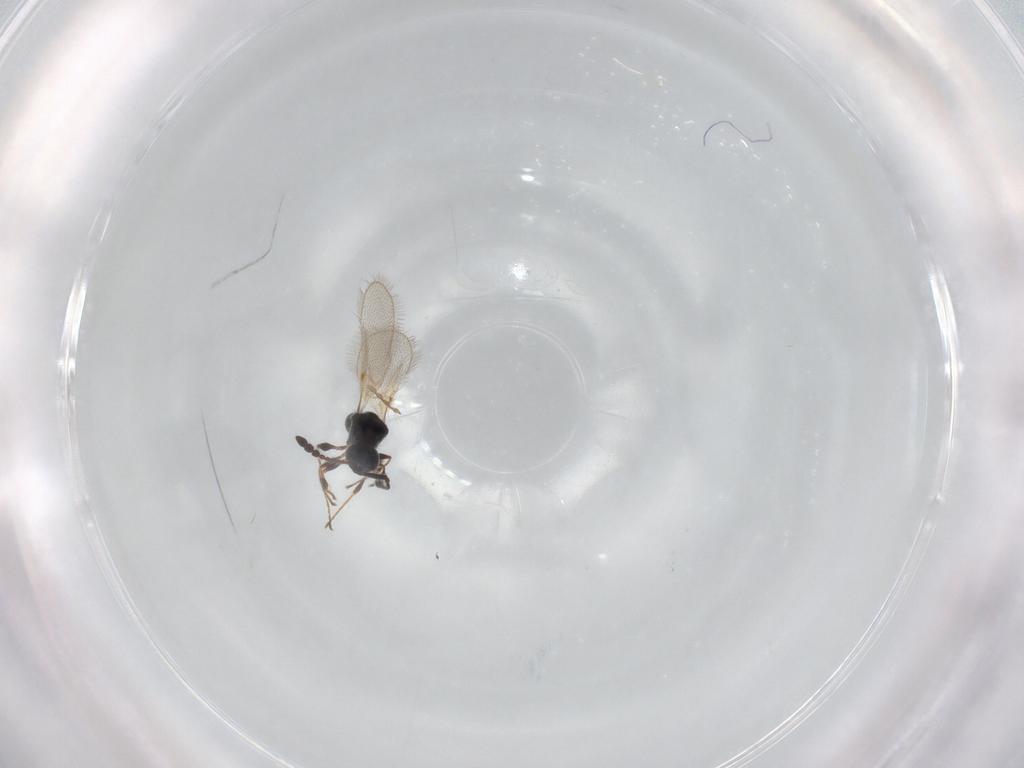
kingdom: Animalia
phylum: Arthropoda
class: Insecta
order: Hymenoptera
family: Diapriidae
